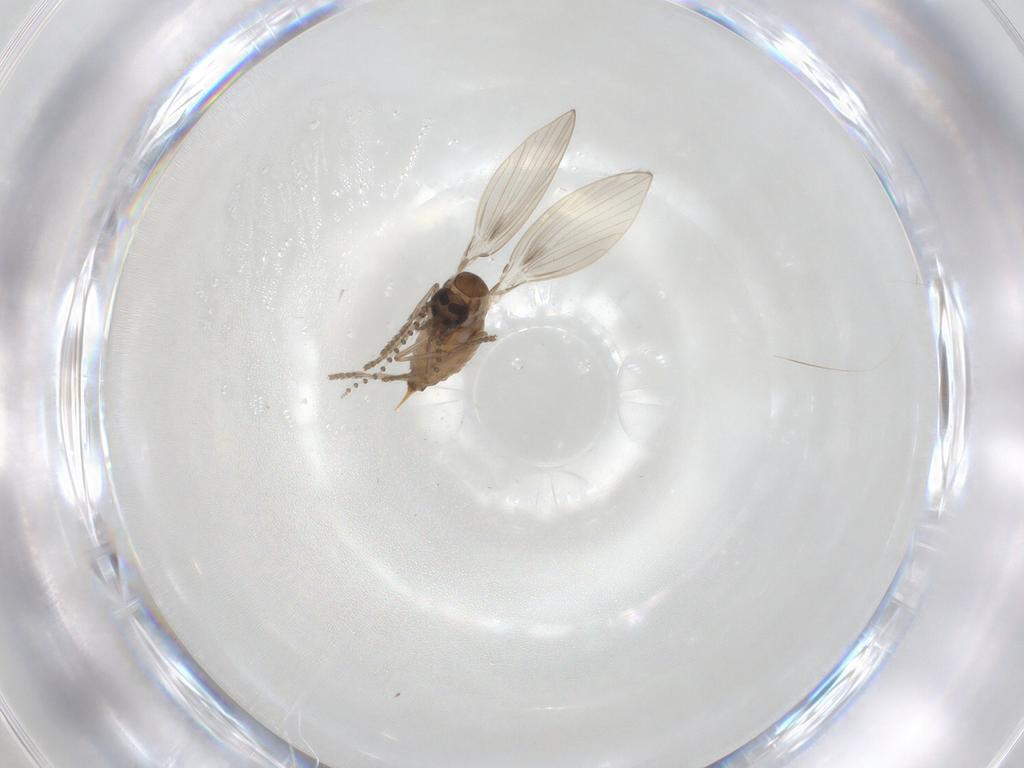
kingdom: Animalia
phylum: Arthropoda
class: Insecta
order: Diptera
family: Psychodidae
